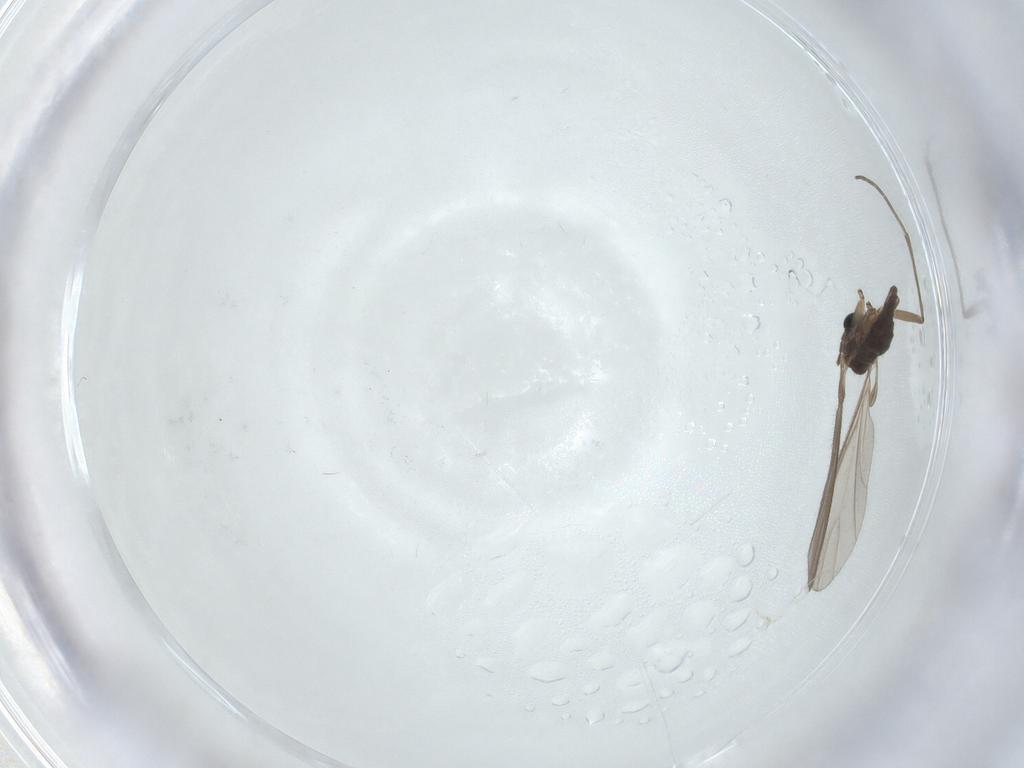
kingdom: Animalia
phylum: Arthropoda
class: Insecta
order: Diptera
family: Sciaridae
